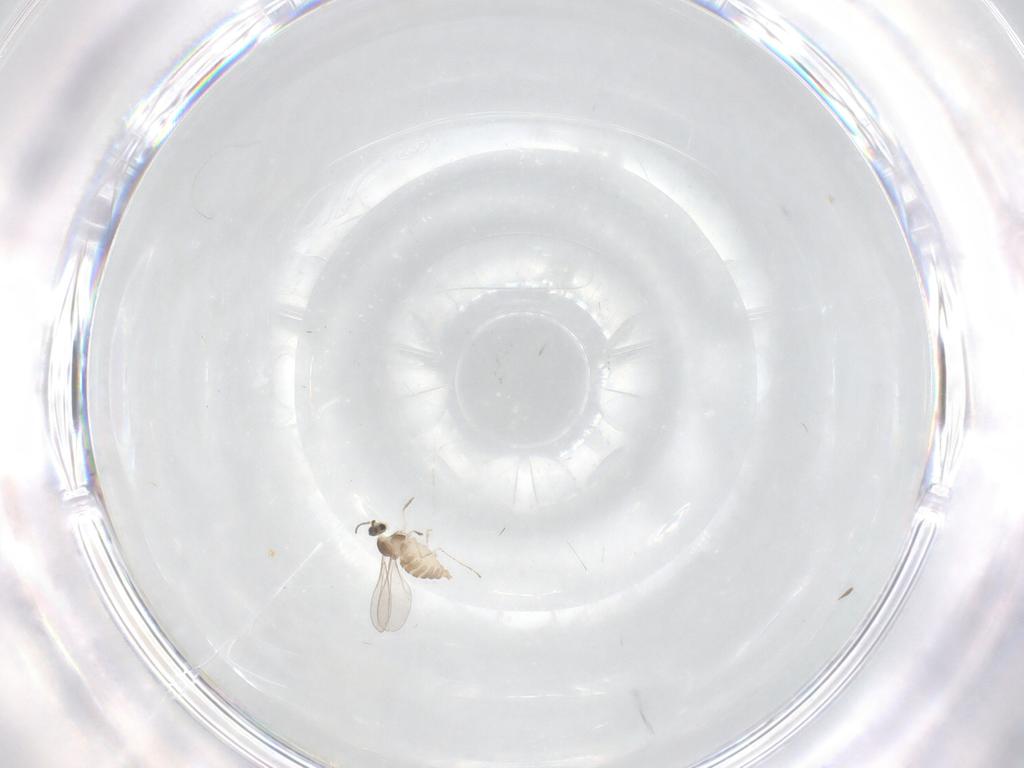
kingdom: Animalia
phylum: Arthropoda
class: Insecta
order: Diptera
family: Cecidomyiidae
